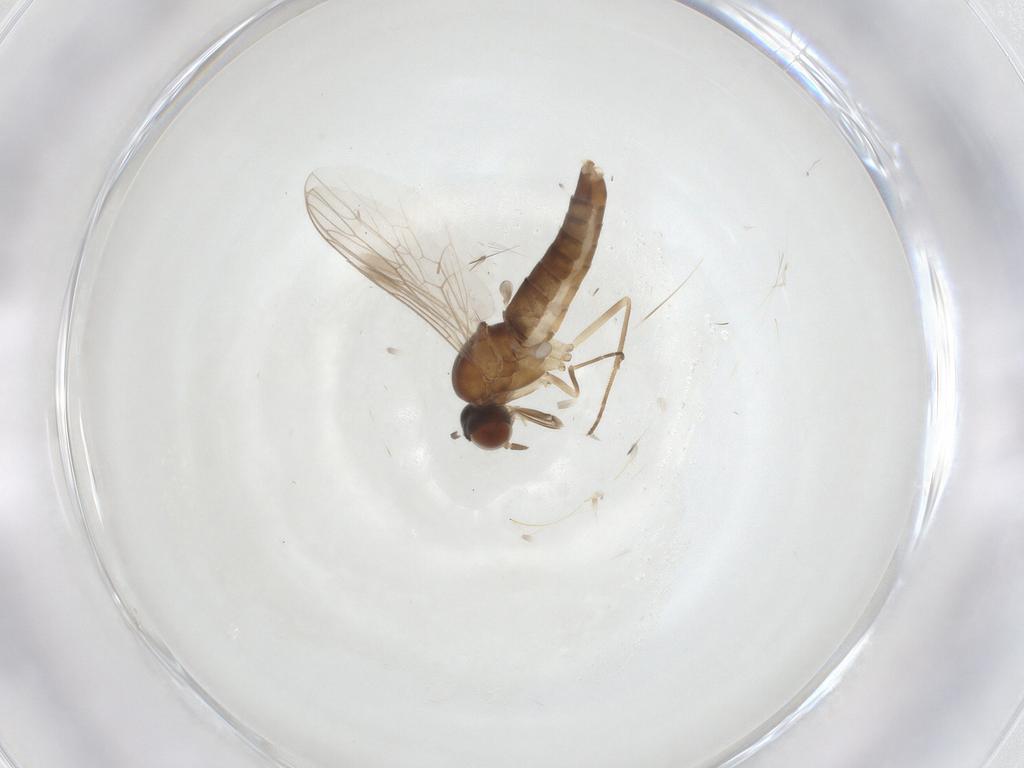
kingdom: Animalia
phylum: Arthropoda
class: Insecta
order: Diptera
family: Scenopinidae
